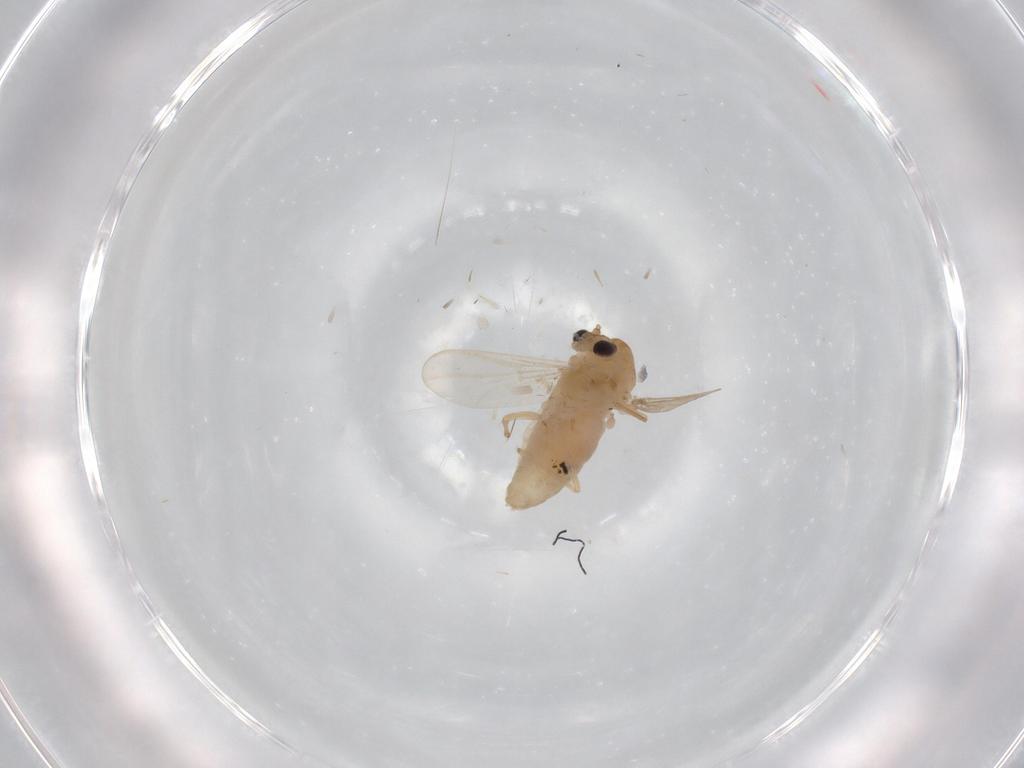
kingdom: Animalia
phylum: Arthropoda
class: Insecta
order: Diptera
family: Chironomidae
